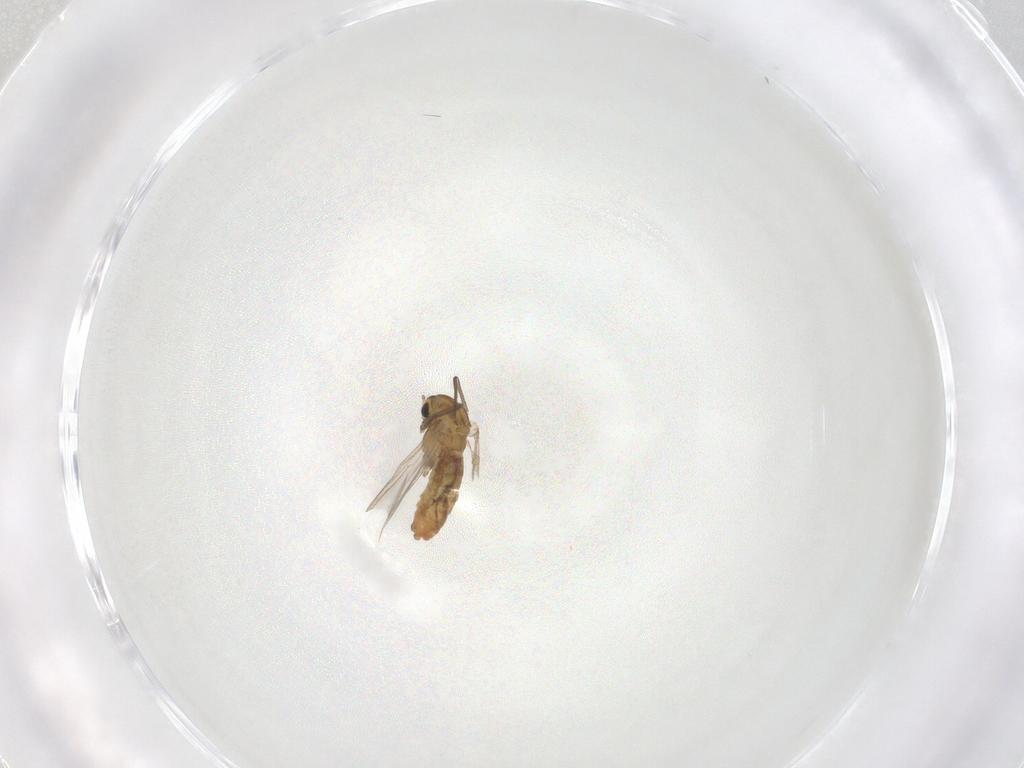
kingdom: Animalia
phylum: Arthropoda
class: Insecta
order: Diptera
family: Chironomidae
